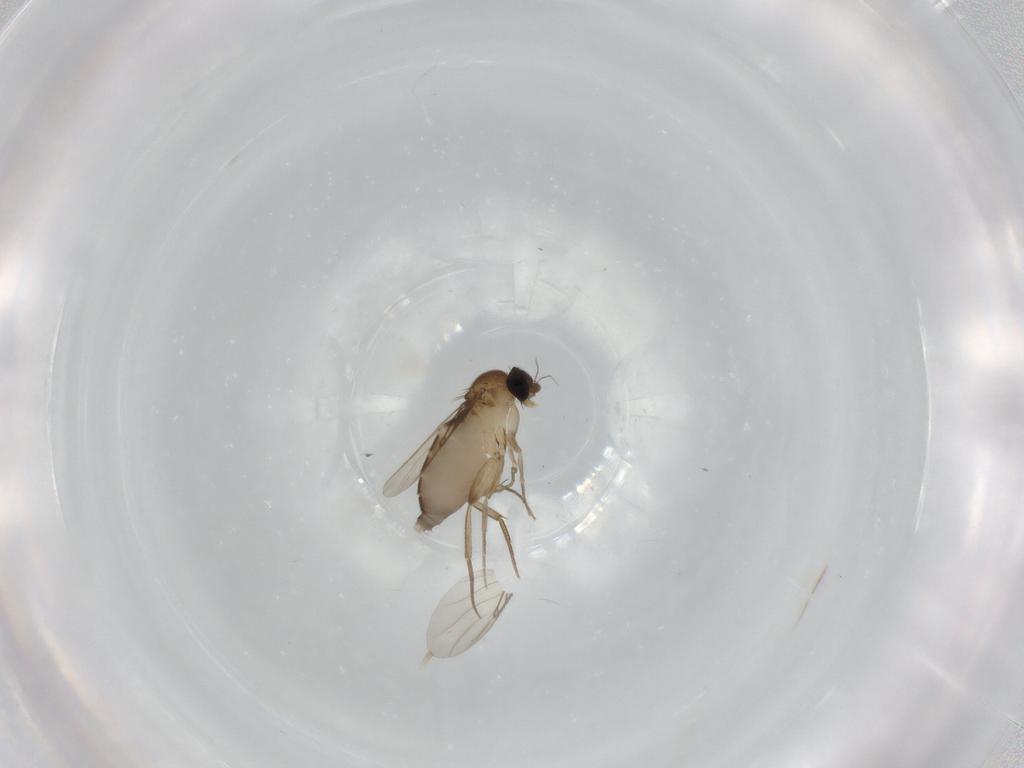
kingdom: Animalia
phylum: Arthropoda
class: Insecta
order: Diptera
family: Phoridae
